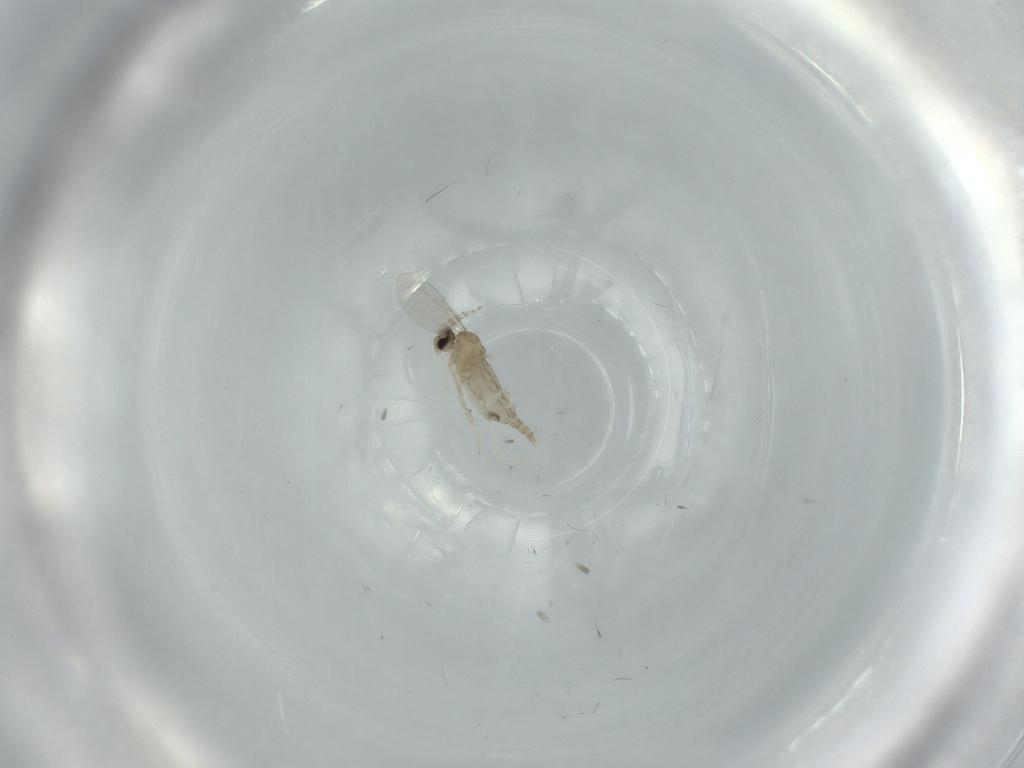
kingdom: Animalia
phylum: Arthropoda
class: Insecta
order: Diptera
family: Cecidomyiidae
